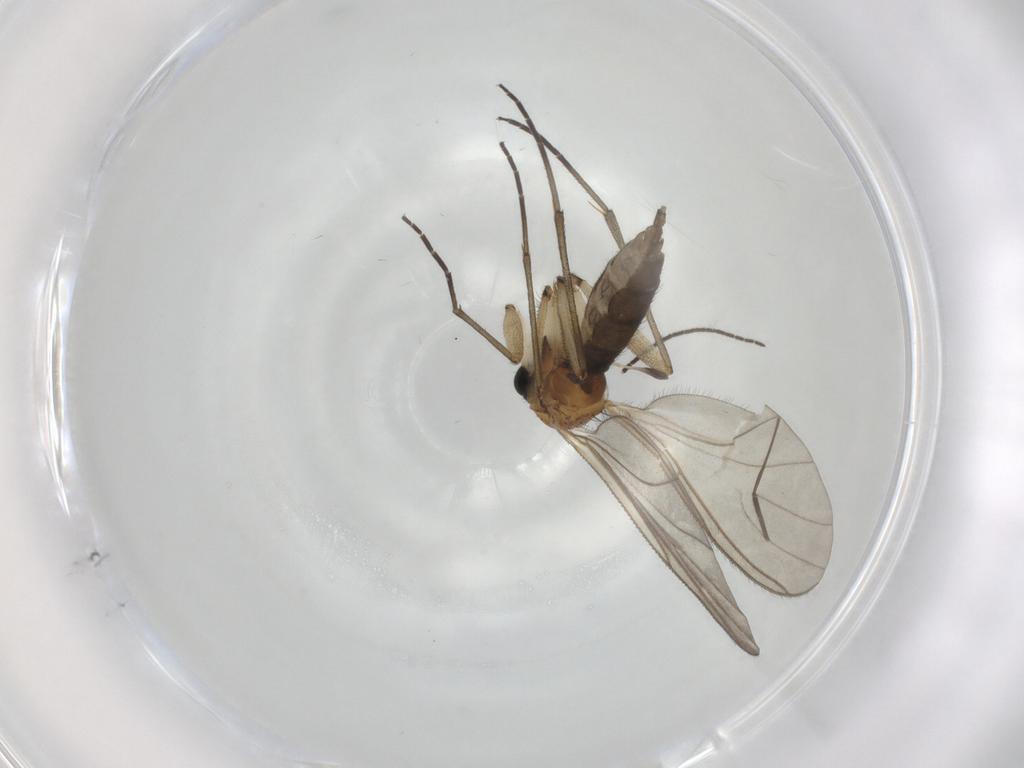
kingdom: Animalia
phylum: Arthropoda
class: Insecta
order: Diptera
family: Sciaridae
